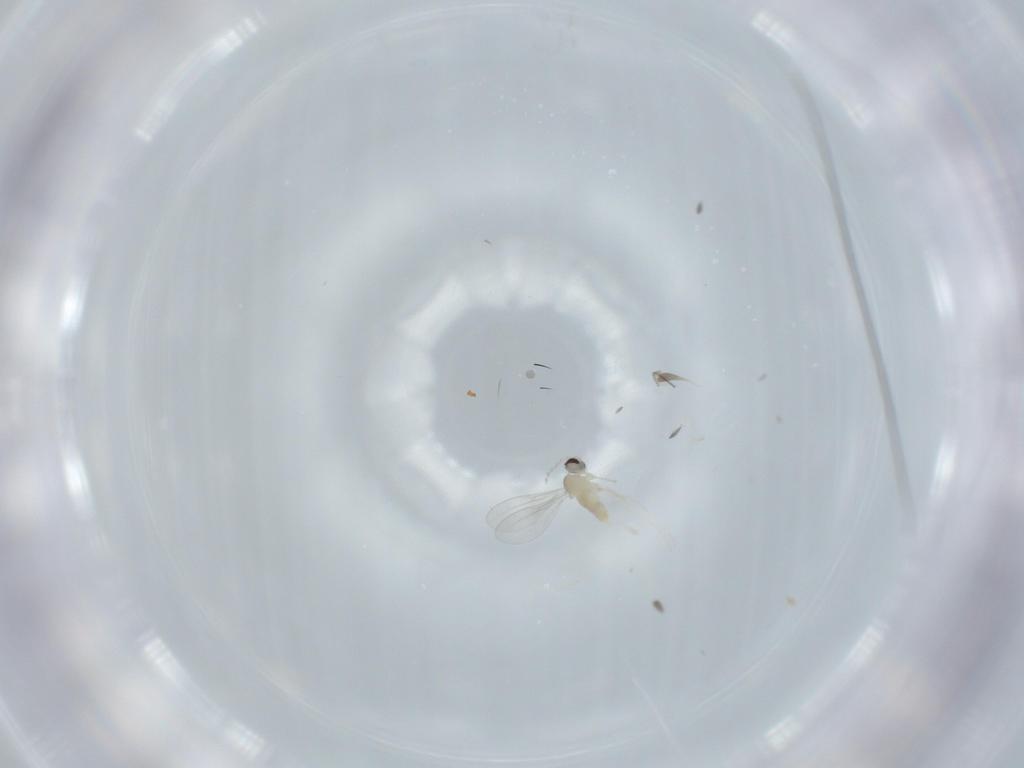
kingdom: Animalia
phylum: Arthropoda
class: Insecta
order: Diptera
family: Cecidomyiidae
